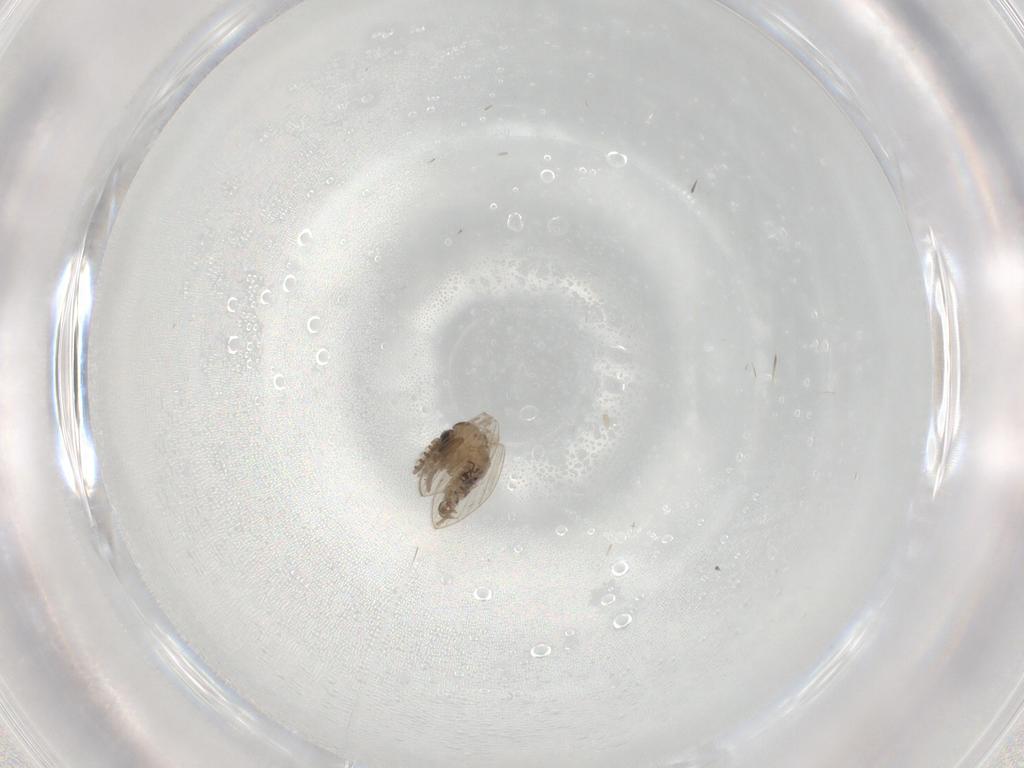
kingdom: Animalia
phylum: Arthropoda
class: Insecta
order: Diptera
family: Psychodidae
